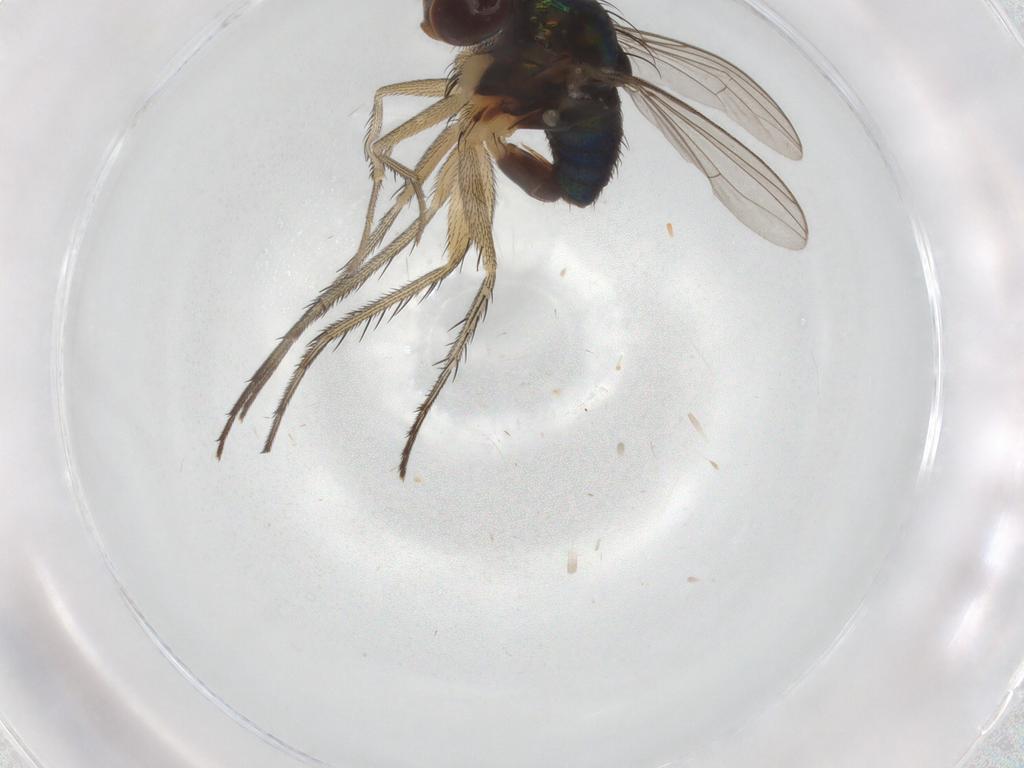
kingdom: Animalia
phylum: Arthropoda
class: Insecta
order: Diptera
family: Dolichopodidae
